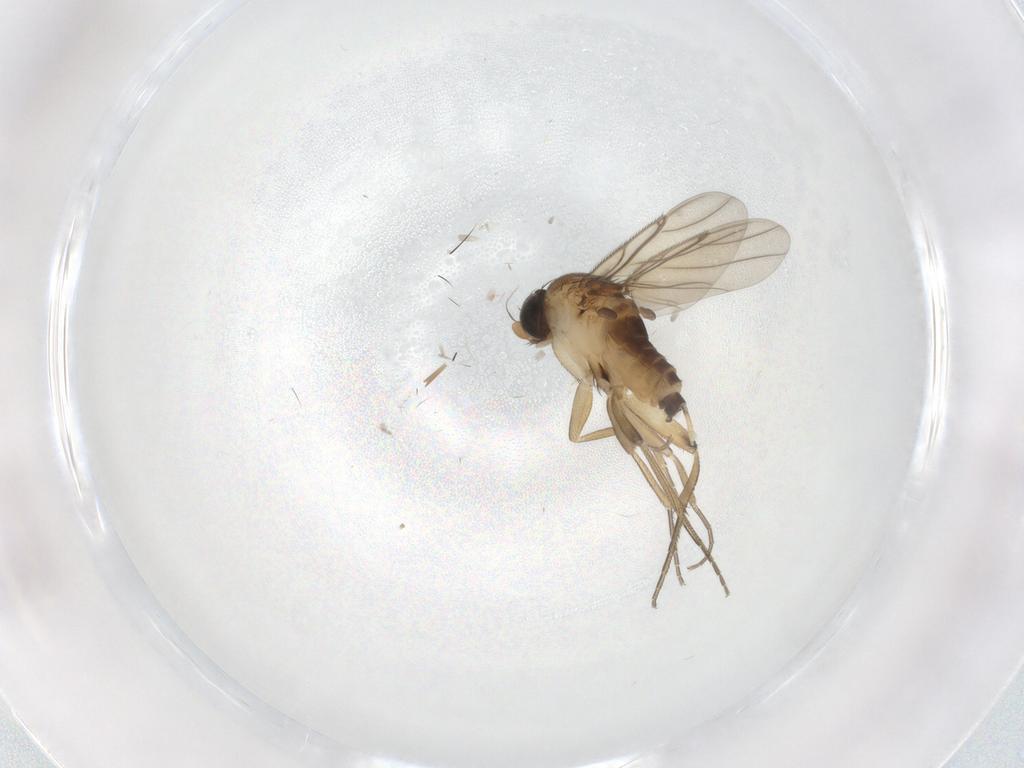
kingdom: Animalia
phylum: Arthropoda
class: Insecta
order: Diptera
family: Phoridae
